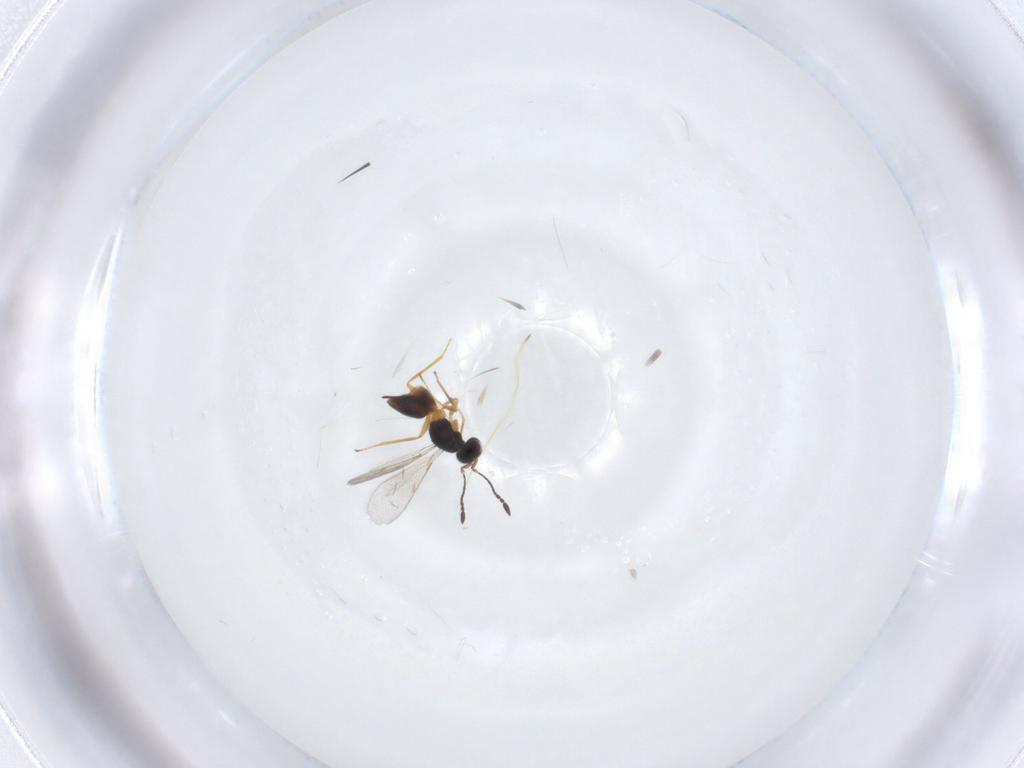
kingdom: Animalia
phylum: Arthropoda
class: Insecta
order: Hymenoptera
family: Mymaridae
